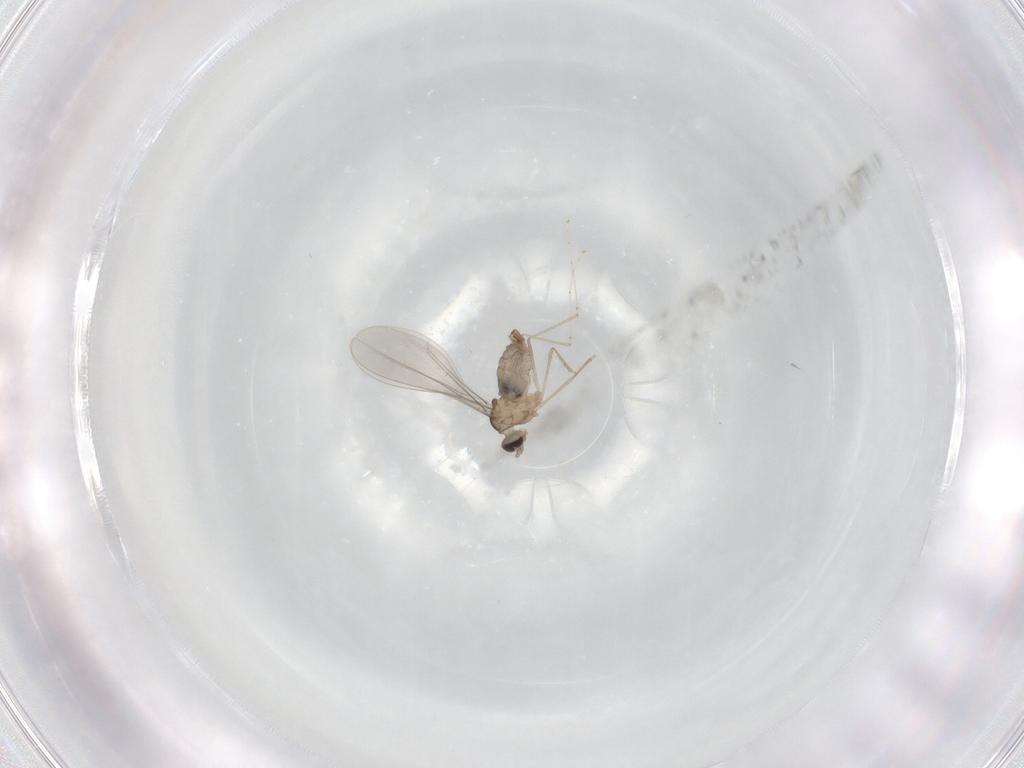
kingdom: Animalia
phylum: Arthropoda
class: Insecta
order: Diptera
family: Cecidomyiidae
